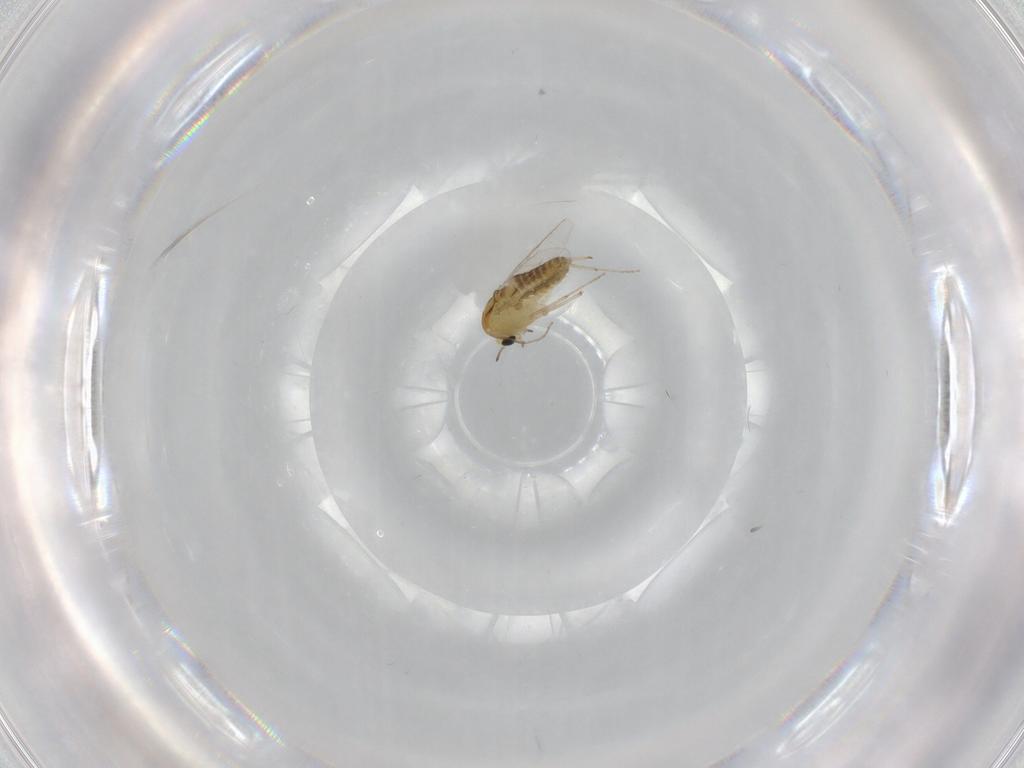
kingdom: Animalia
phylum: Arthropoda
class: Insecta
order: Diptera
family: Chironomidae
